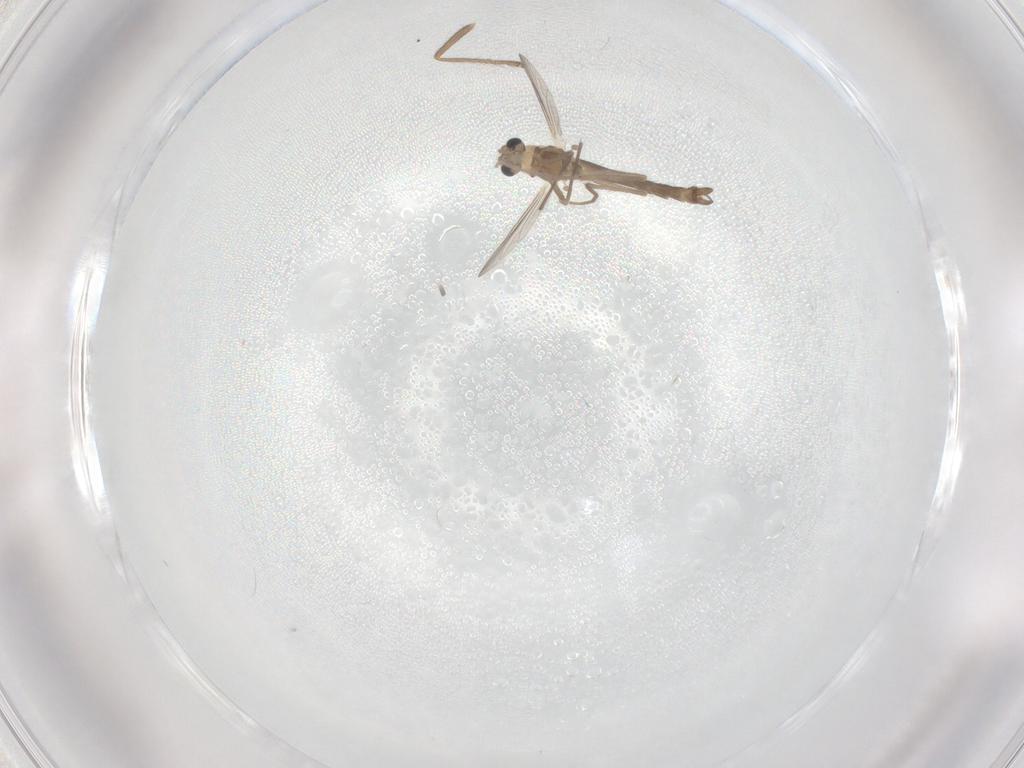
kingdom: Animalia
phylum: Arthropoda
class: Insecta
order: Diptera
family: Chironomidae
